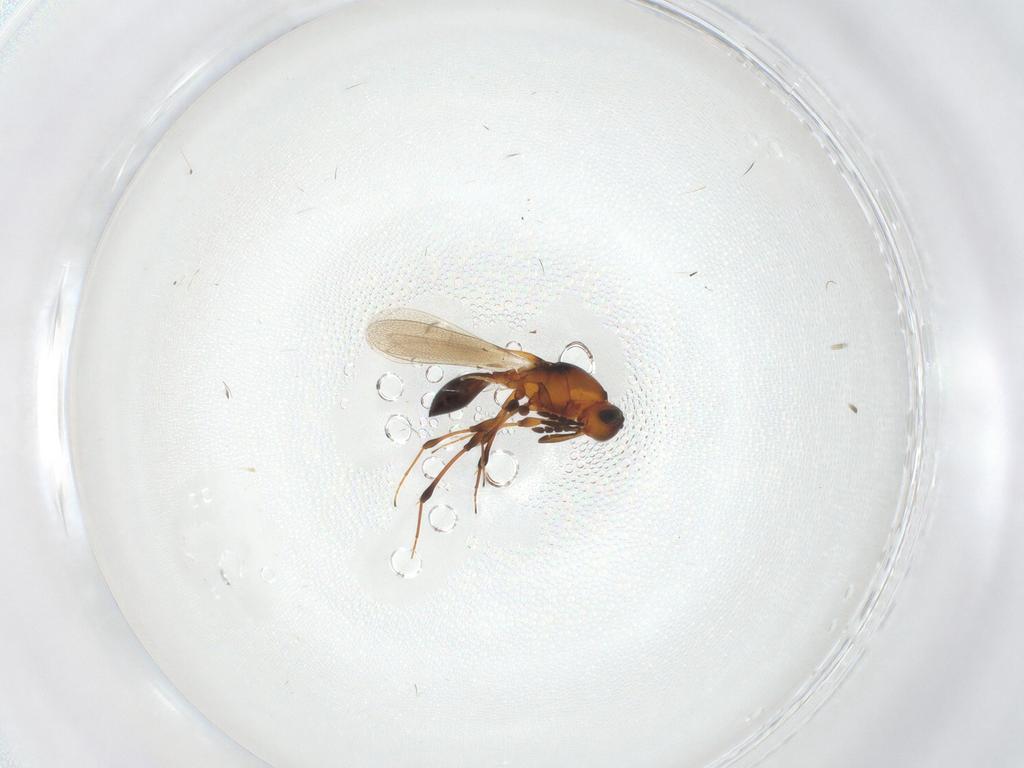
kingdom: Animalia
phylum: Arthropoda
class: Insecta
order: Hymenoptera
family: Platygastridae
